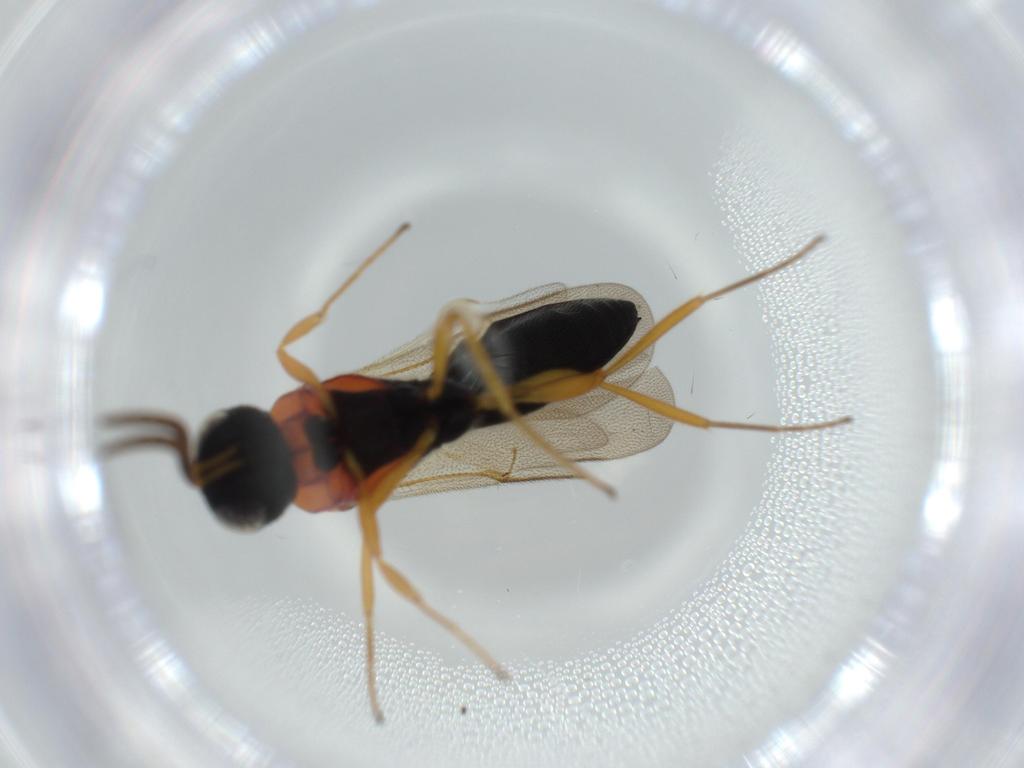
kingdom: Animalia
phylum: Arthropoda
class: Insecta
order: Hymenoptera
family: Scelionidae
